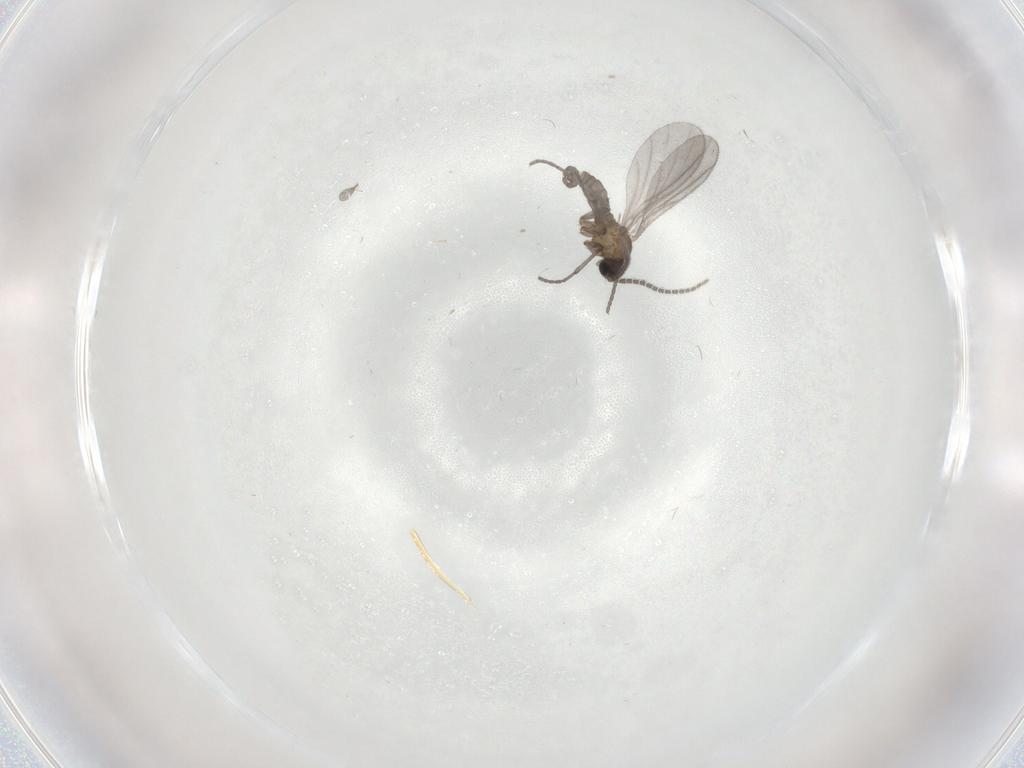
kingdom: Animalia
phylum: Arthropoda
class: Insecta
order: Diptera
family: Sciaridae
